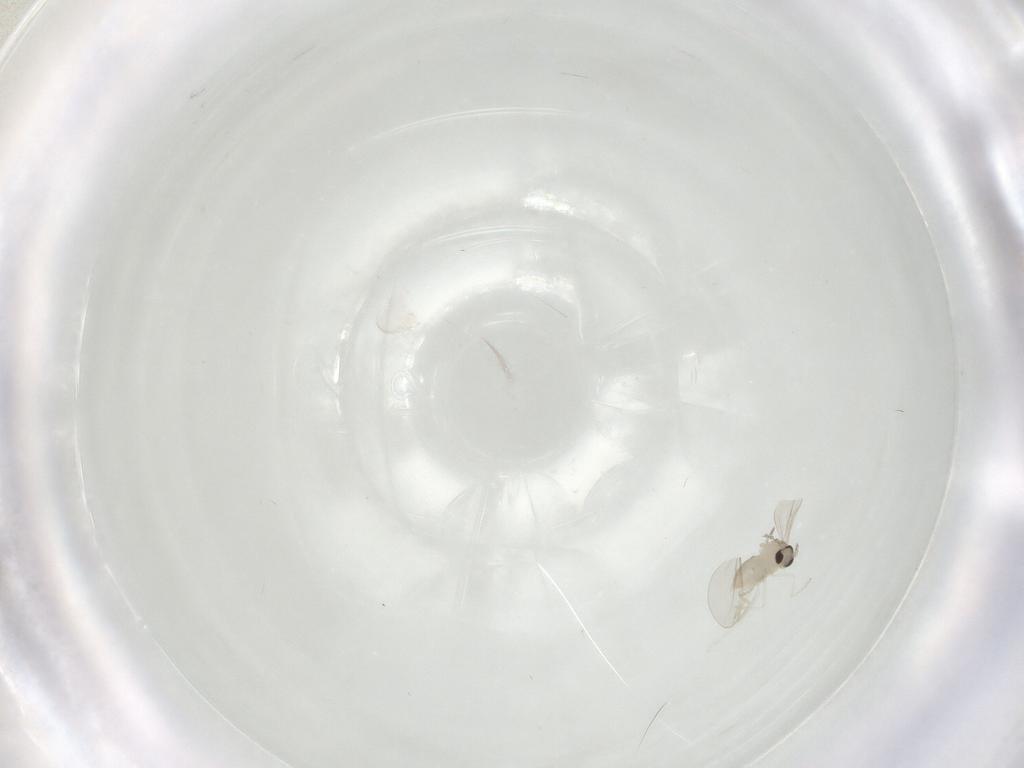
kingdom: Animalia
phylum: Arthropoda
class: Insecta
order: Diptera
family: Cecidomyiidae
